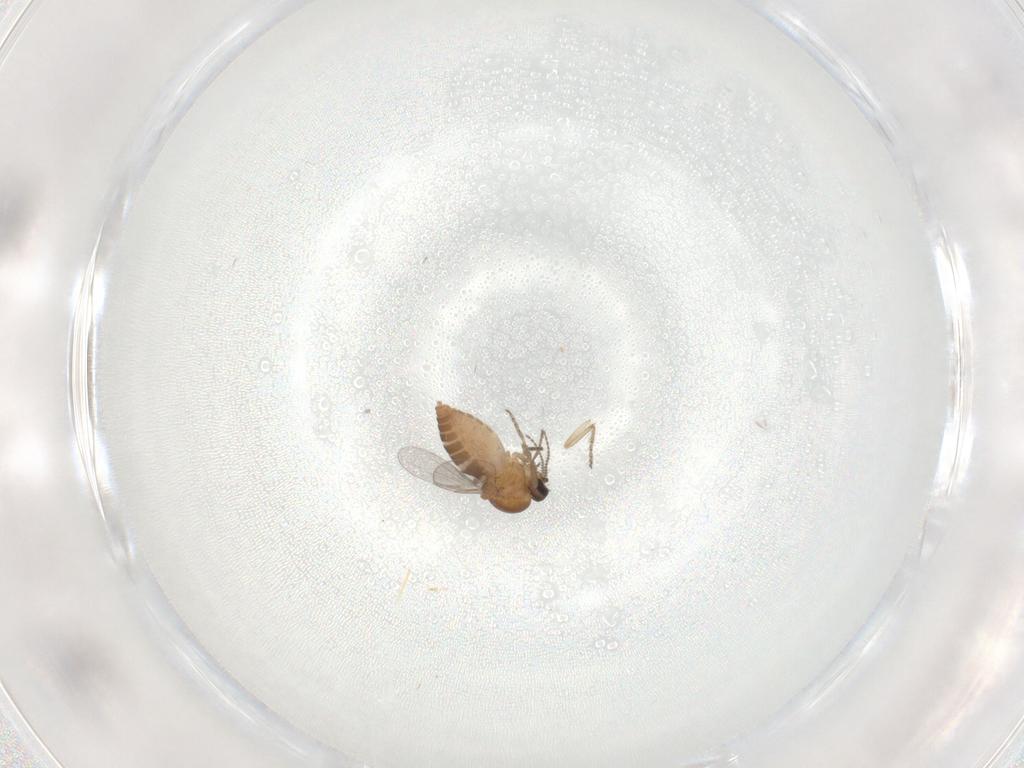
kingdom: Animalia
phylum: Arthropoda
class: Insecta
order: Diptera
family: Ceratopogonidae
